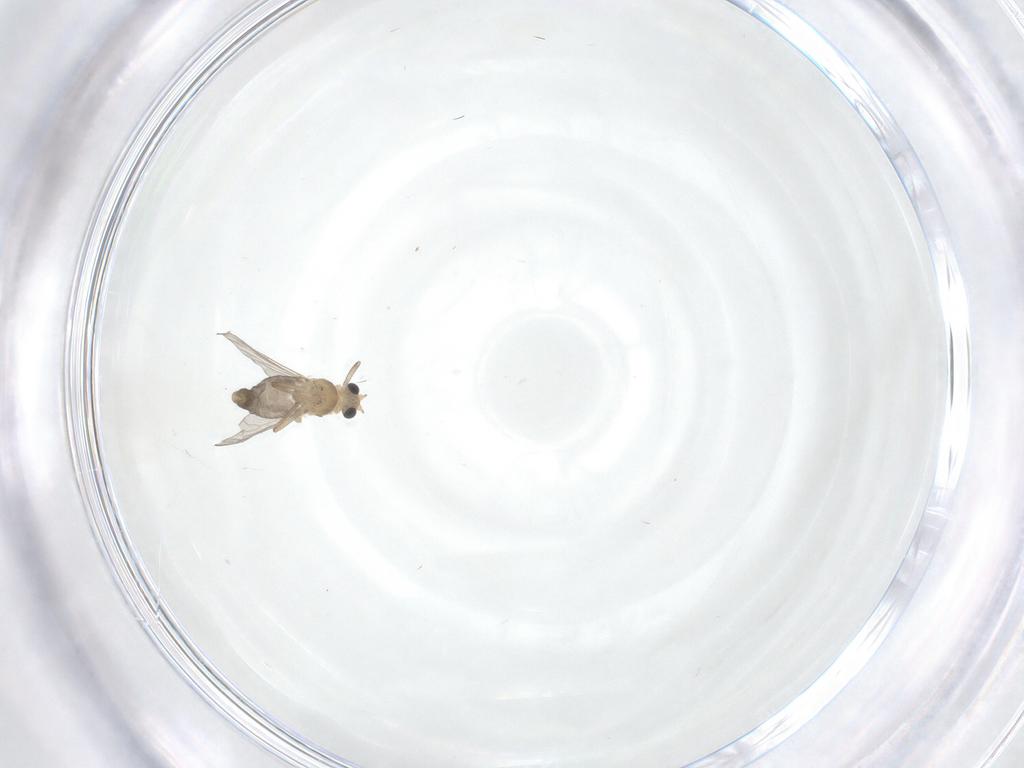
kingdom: Animalia
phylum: Arthropoda
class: Insecta
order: Diptera
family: Chironomidae
